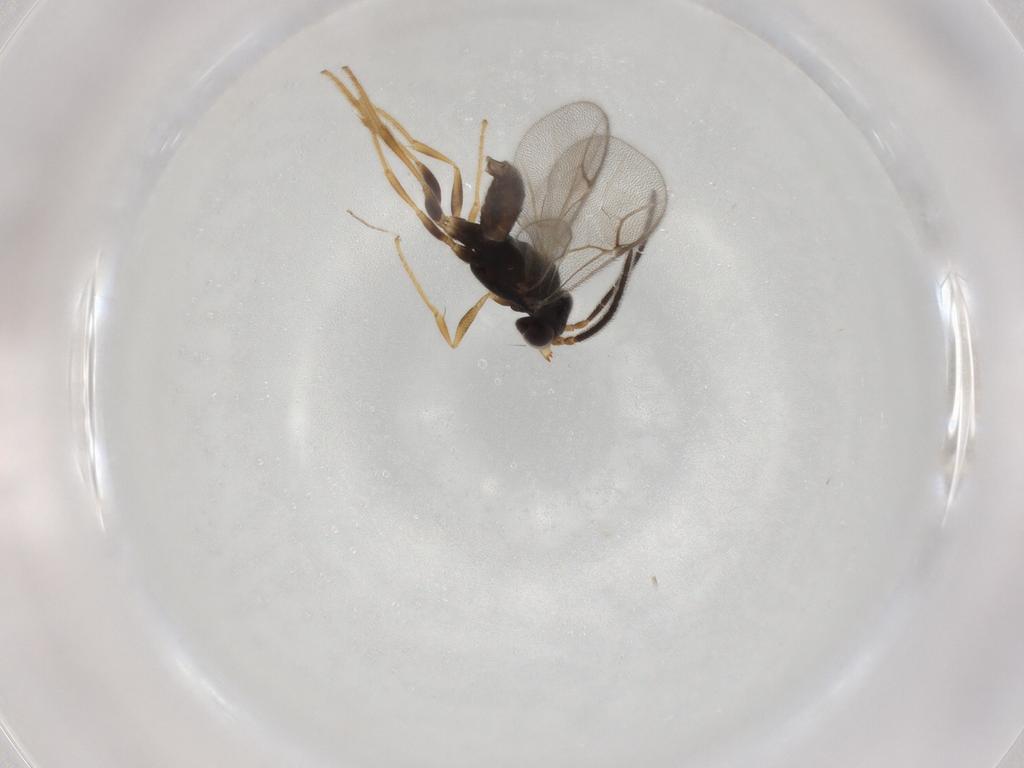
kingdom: Animalia
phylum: Arthropoda
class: Insecta
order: Hymenoptera
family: Dryinidae
